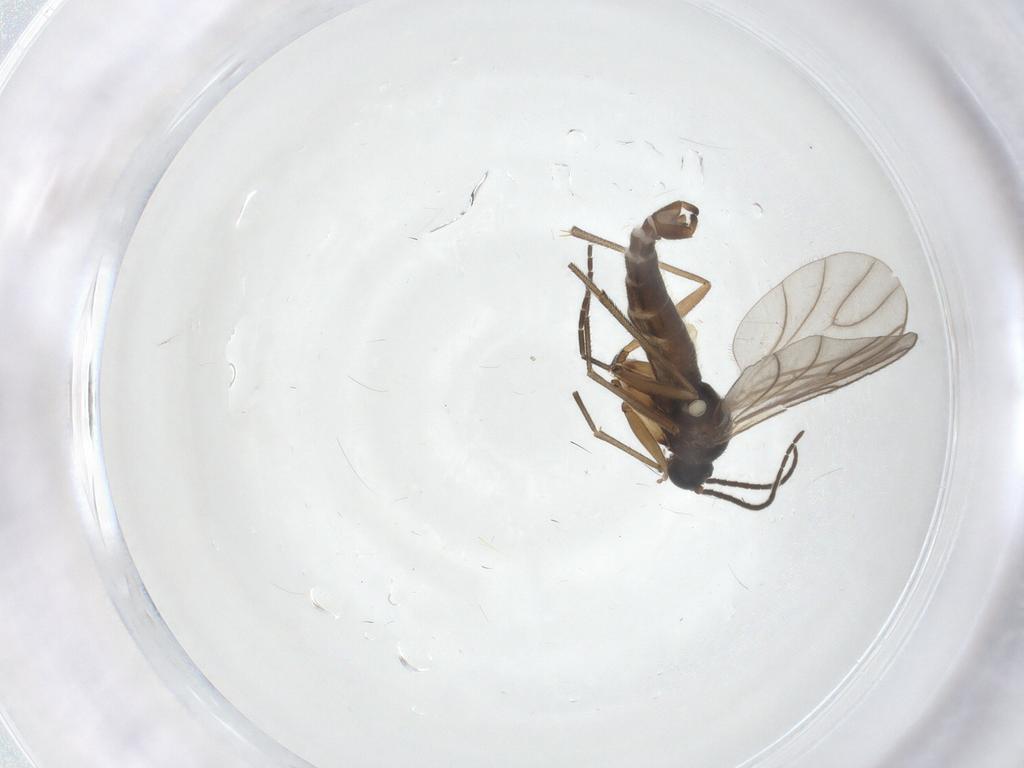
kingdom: Animalia
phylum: Arthropoda
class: Insecta
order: Diptera
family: Sciaridae
